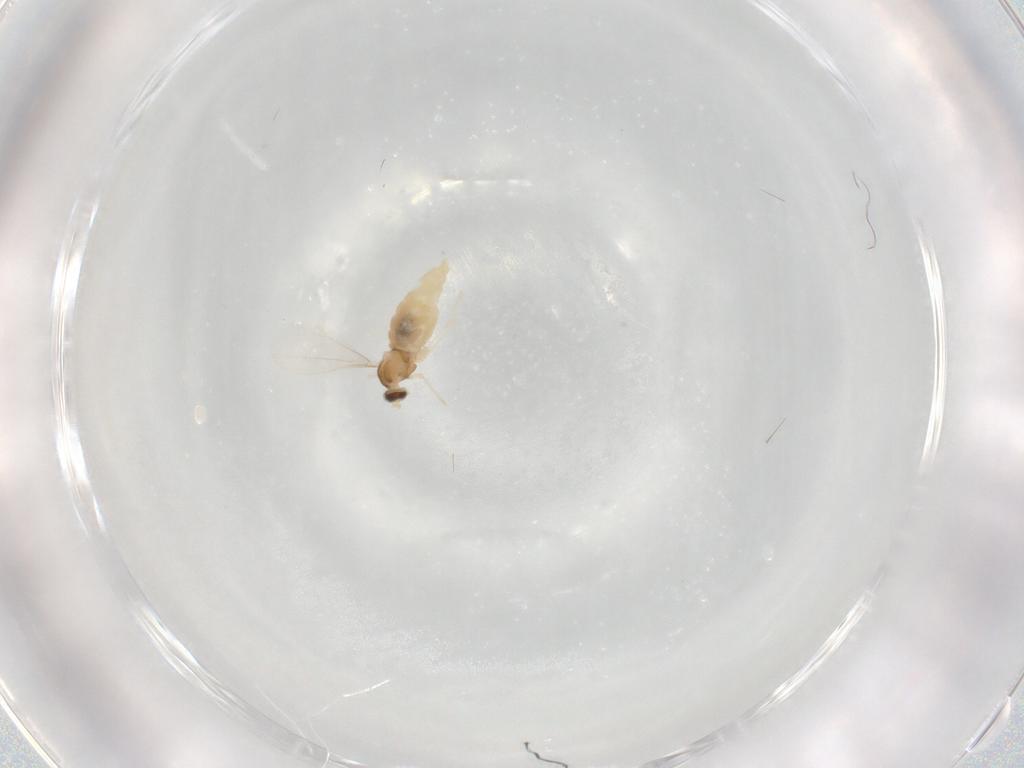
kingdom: Animalia
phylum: Arthropoda
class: Insecta
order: Diptera
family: Cecidomyiidae
